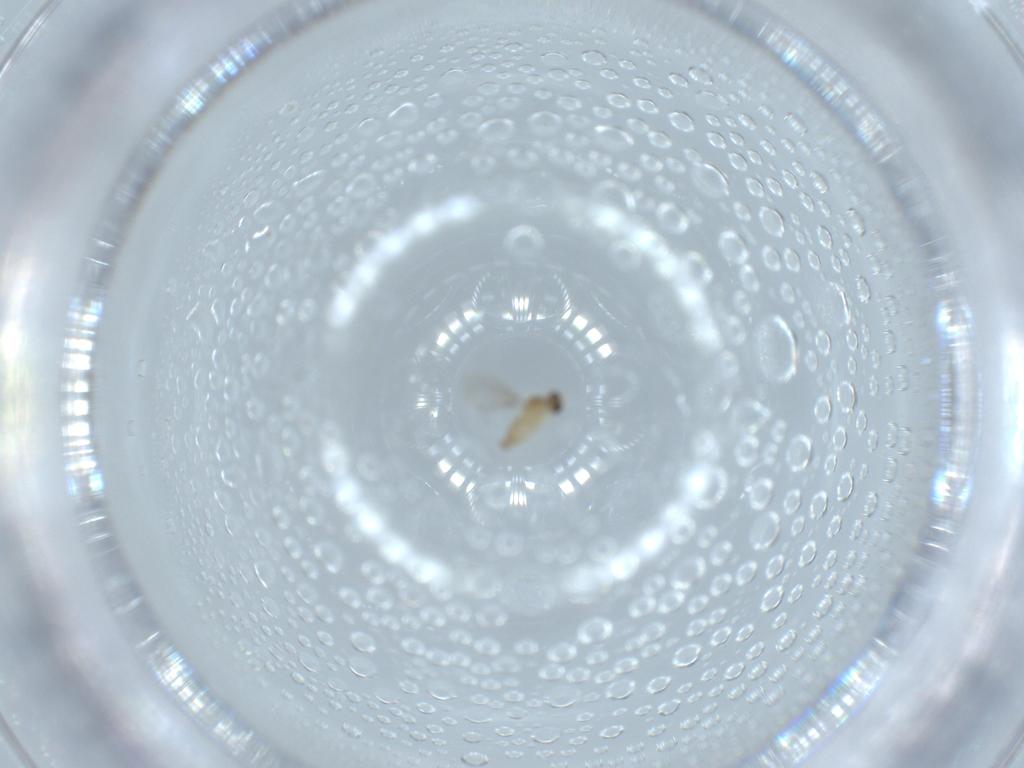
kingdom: Animalia
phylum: Arthropoda
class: Insecta
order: Diptera
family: Cecidomyiidae
